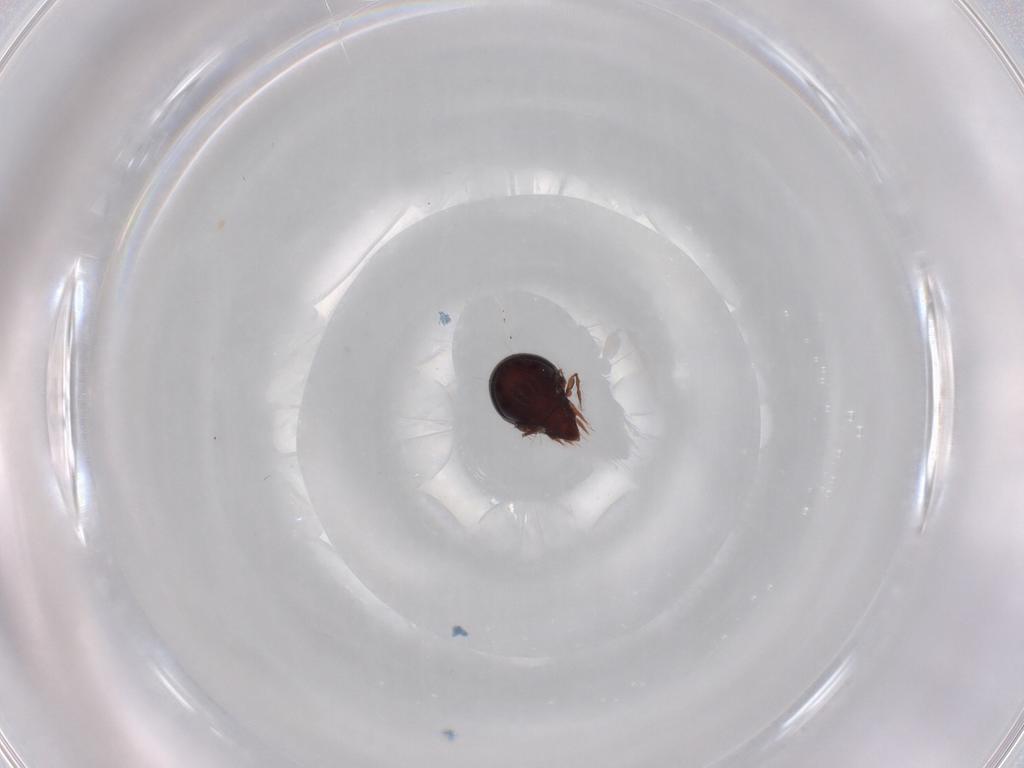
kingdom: Animalia
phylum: Arthropoda
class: Arachnida
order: Sarcoptiformes
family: Ceratoppiidae
